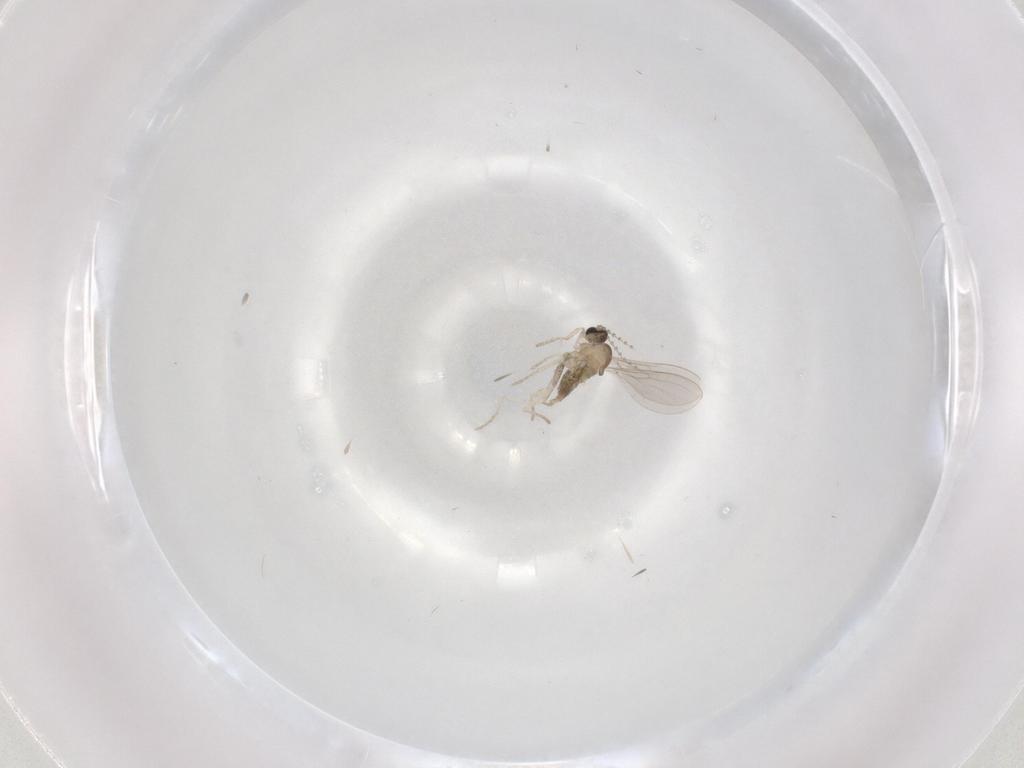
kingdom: Animalia
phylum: Arthropoda
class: Insecta
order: Diptera
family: Cecidomyiidae
